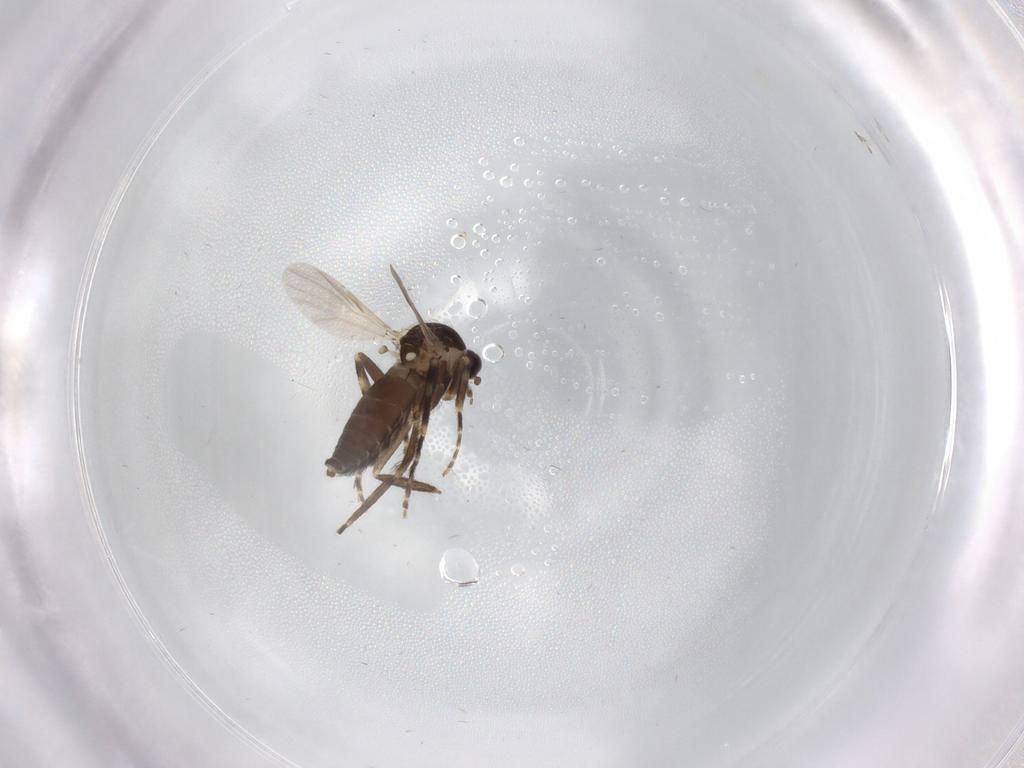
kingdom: Animalia
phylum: Arthropoda
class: Insecta
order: Diptera
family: Ceratopogonidae
